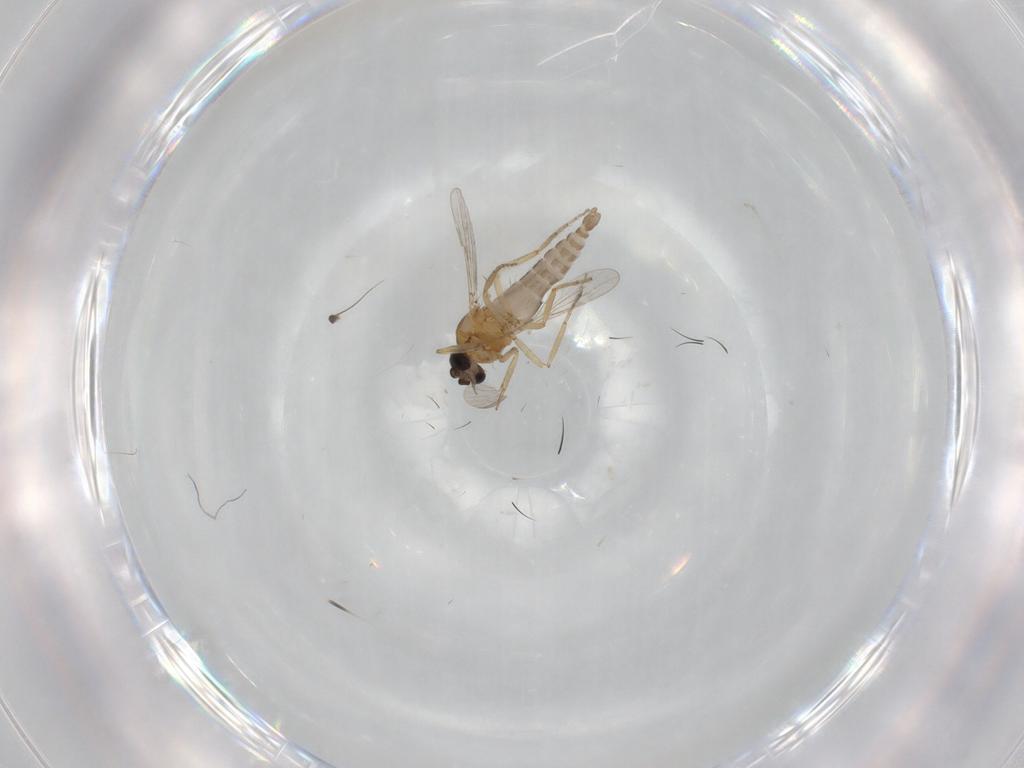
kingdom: Animalia
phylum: Arthropoda
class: Insecta
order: Diptera
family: Ceratopogonidae
